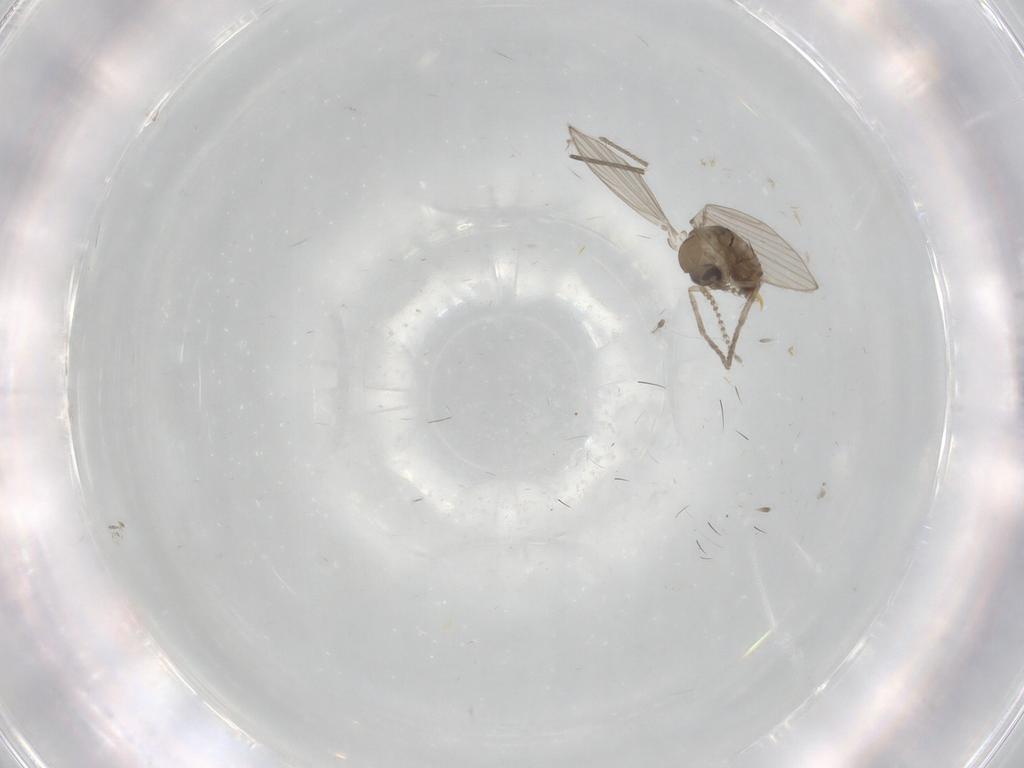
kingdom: Animalia
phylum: Arthropoda
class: Insecta
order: Diptera
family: Psychodidae
